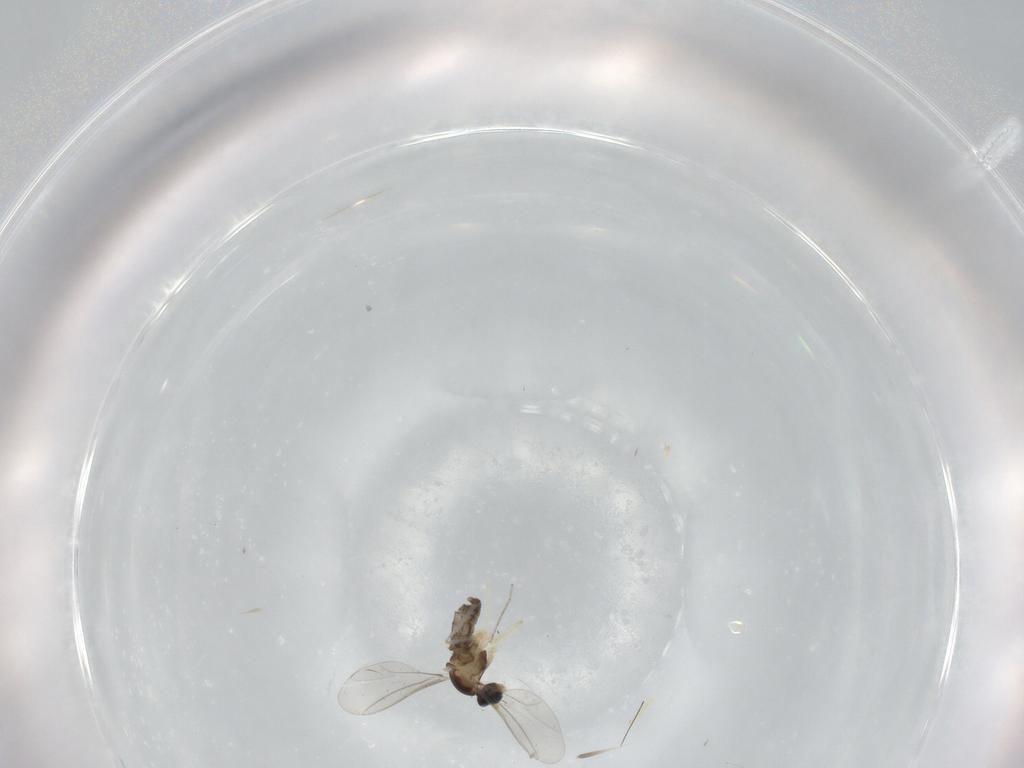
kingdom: Animalia
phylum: Arthropoda
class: Insecta
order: Diptera
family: Cecidomyiidae
